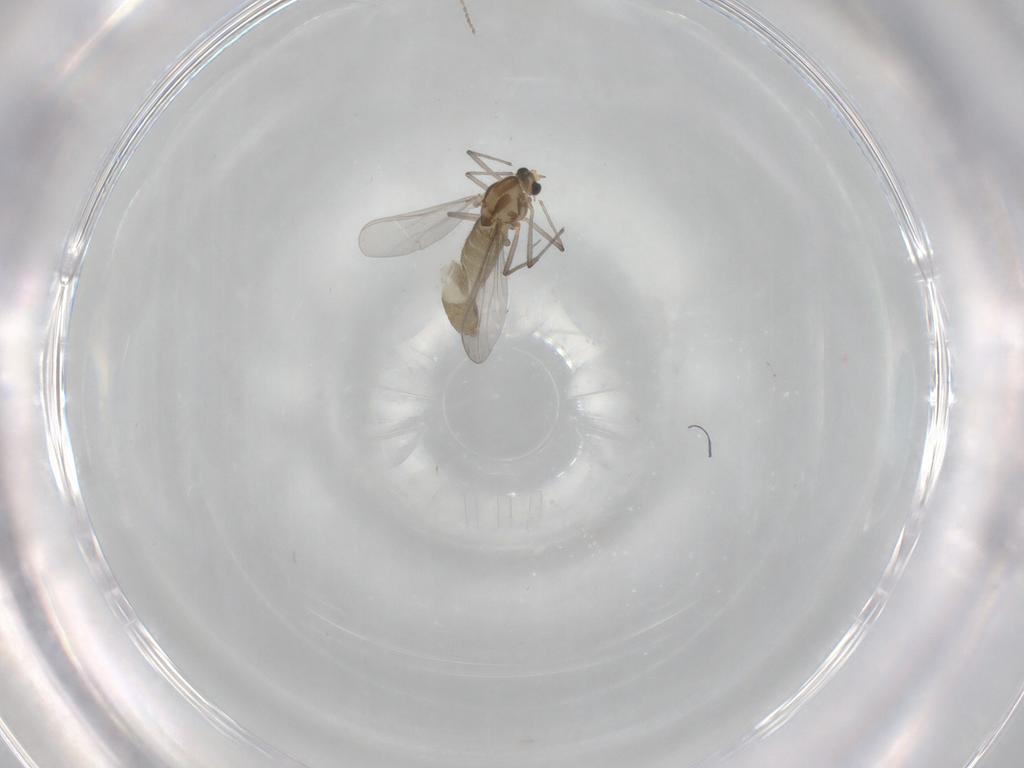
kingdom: Animalia
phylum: Arthropoda
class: Insecta
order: Diptera
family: Cecidomyiidae
